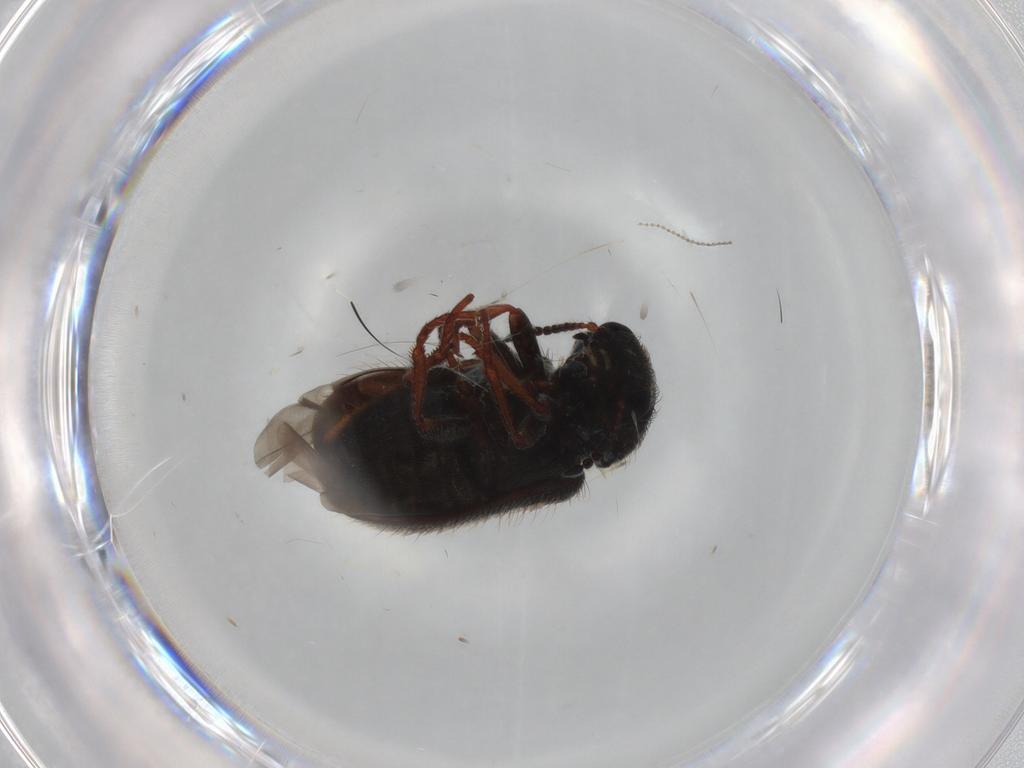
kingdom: Animalia
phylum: Arthropoda
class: Insecta
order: Coleoptera
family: Melyridae
